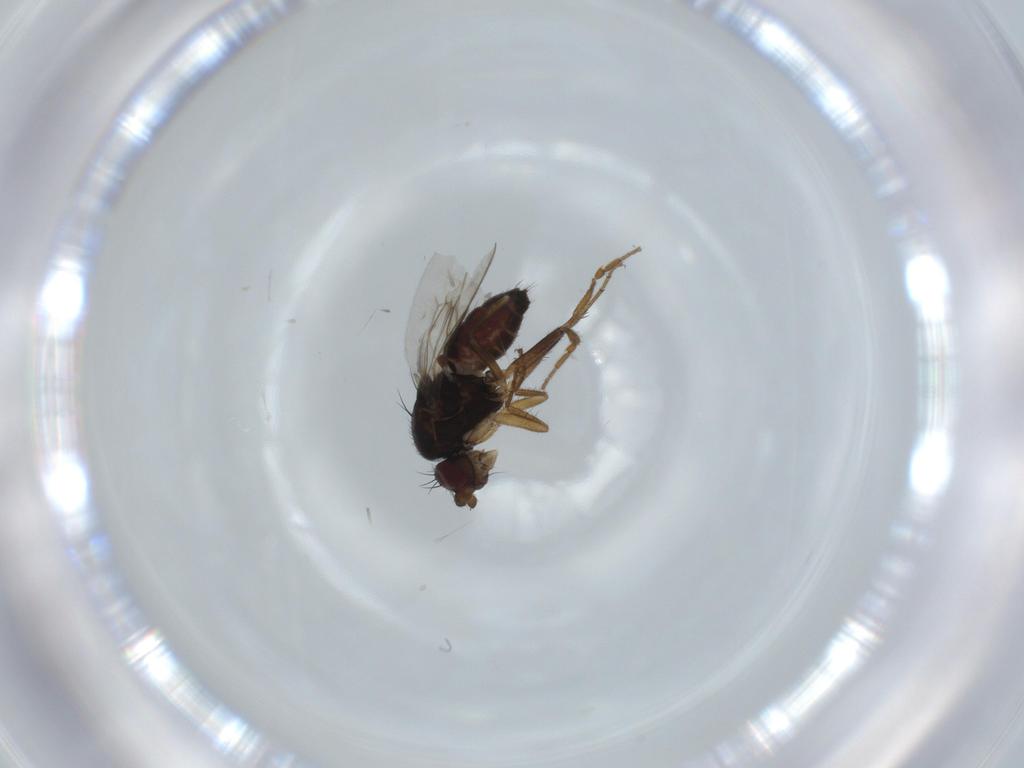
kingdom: Animalia
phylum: Arthropoda
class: Insecta
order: Diptera
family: Sphaeroceridae
